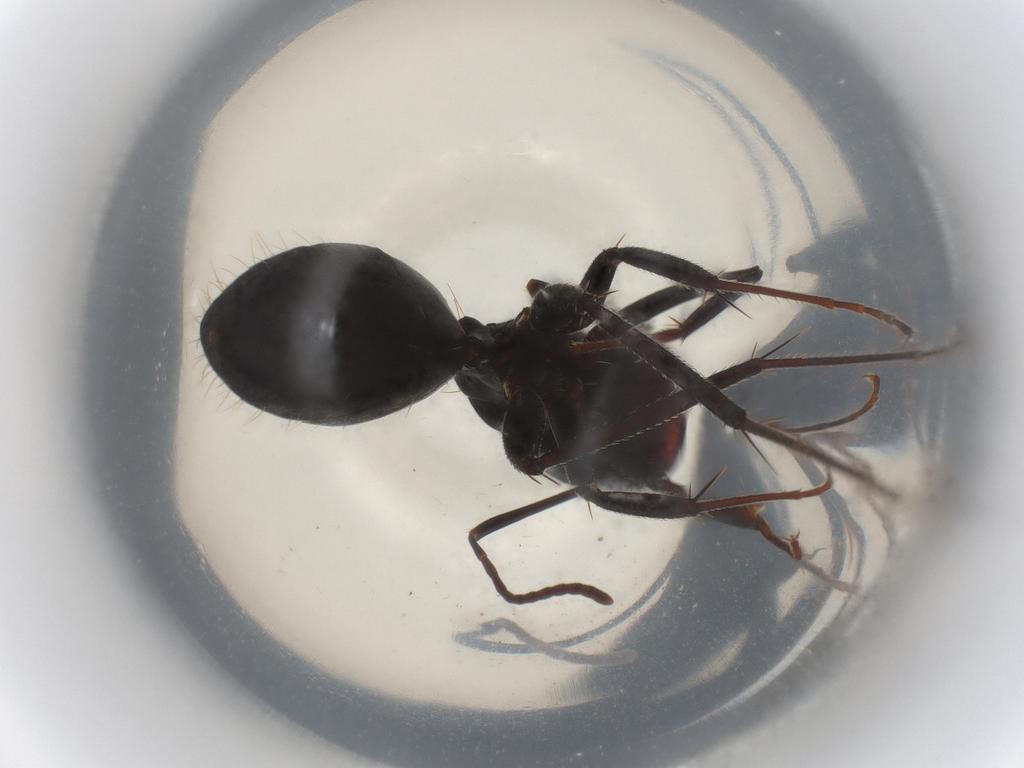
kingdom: Animalia
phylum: Arthropoda
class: Insecta
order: Hymenoptera
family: Formicidae
